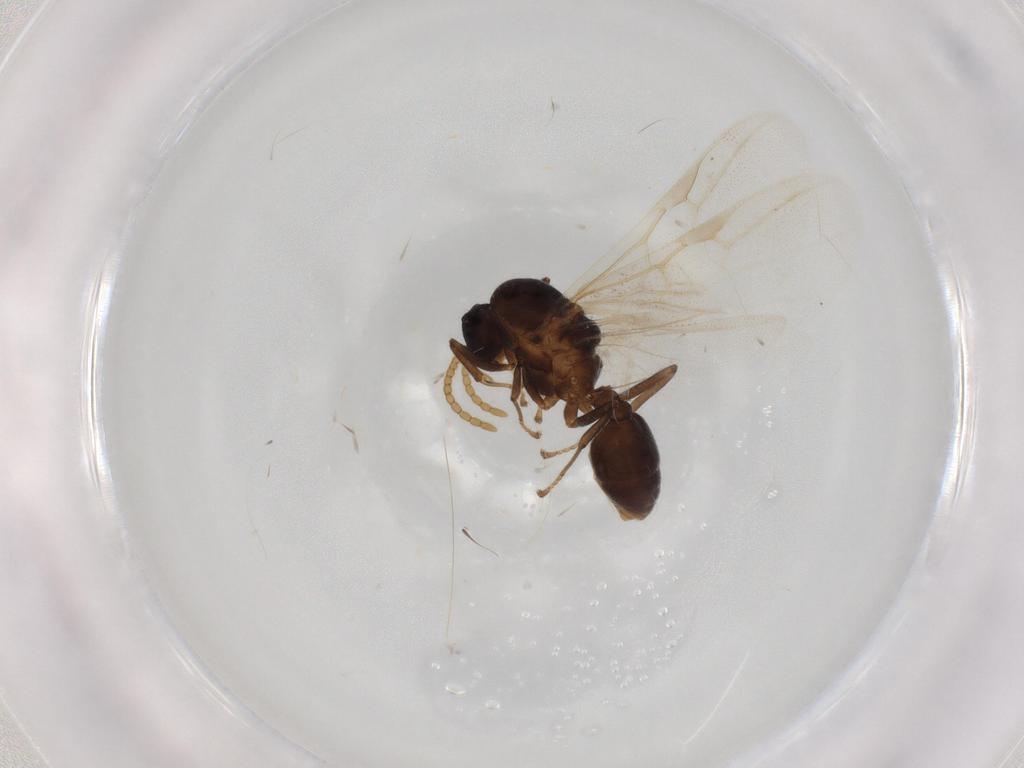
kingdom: Animalia
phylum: Arthropoda
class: Insecta
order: Hymenoptera
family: Formicidae
